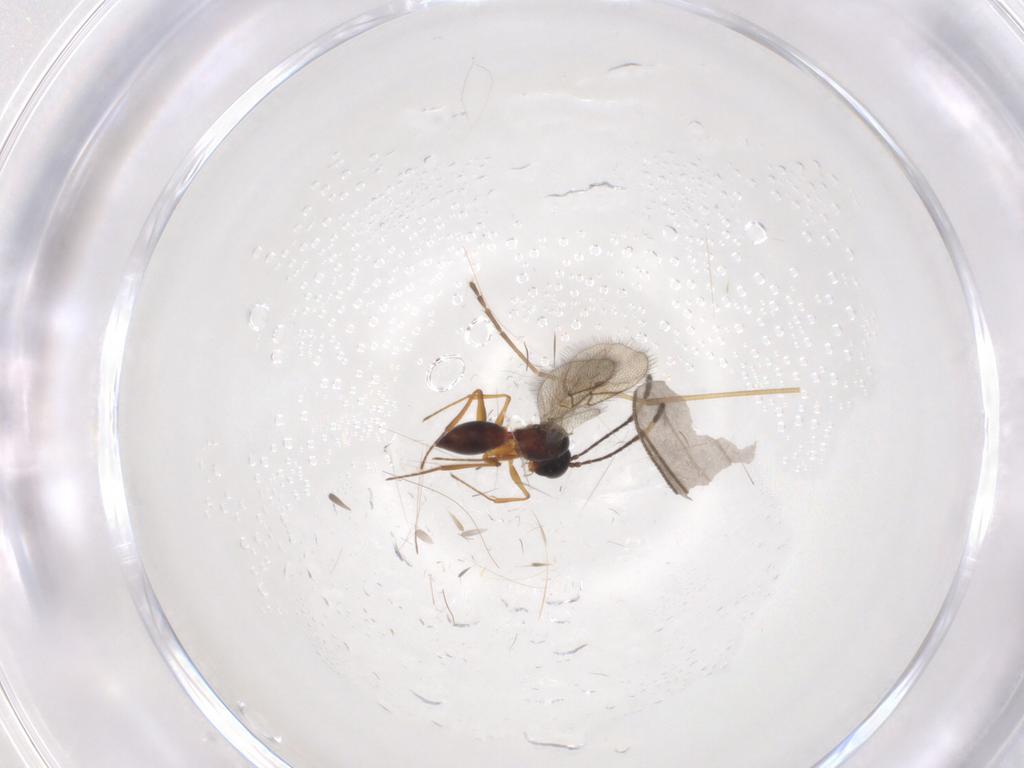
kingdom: Animalia
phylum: Arthropoda
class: Insecta
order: Hymenoptera
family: Figitidae
